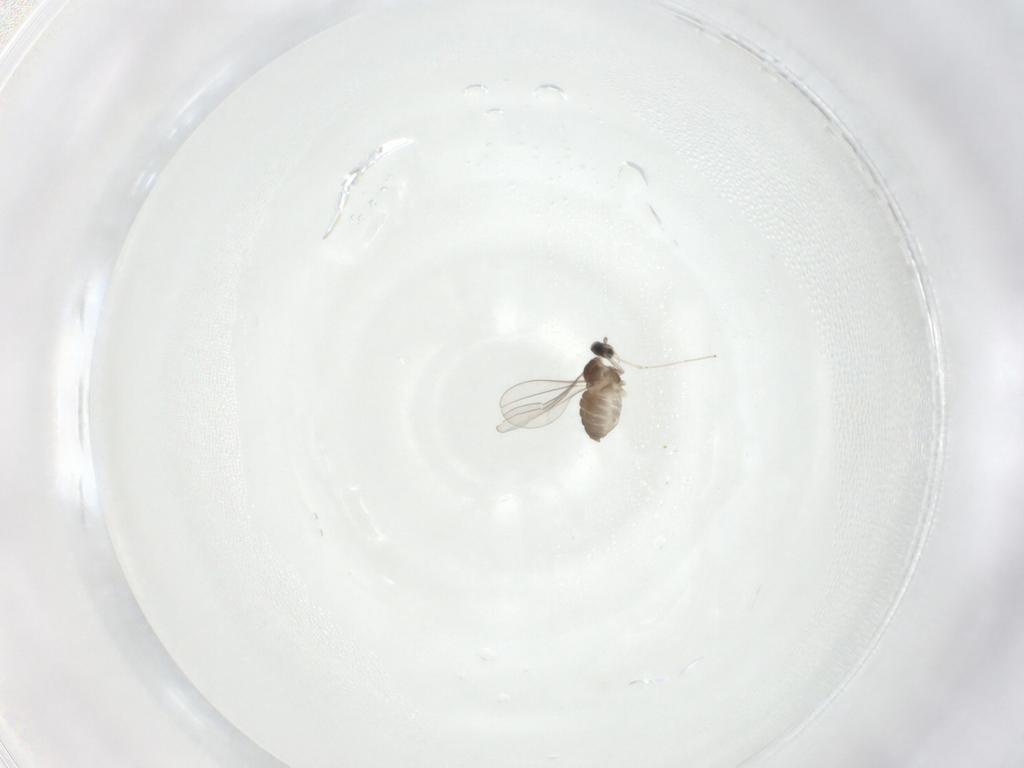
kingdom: Animalia
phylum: Arthropoda
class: Insecta
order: Diptera
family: Cecidomyiidae
